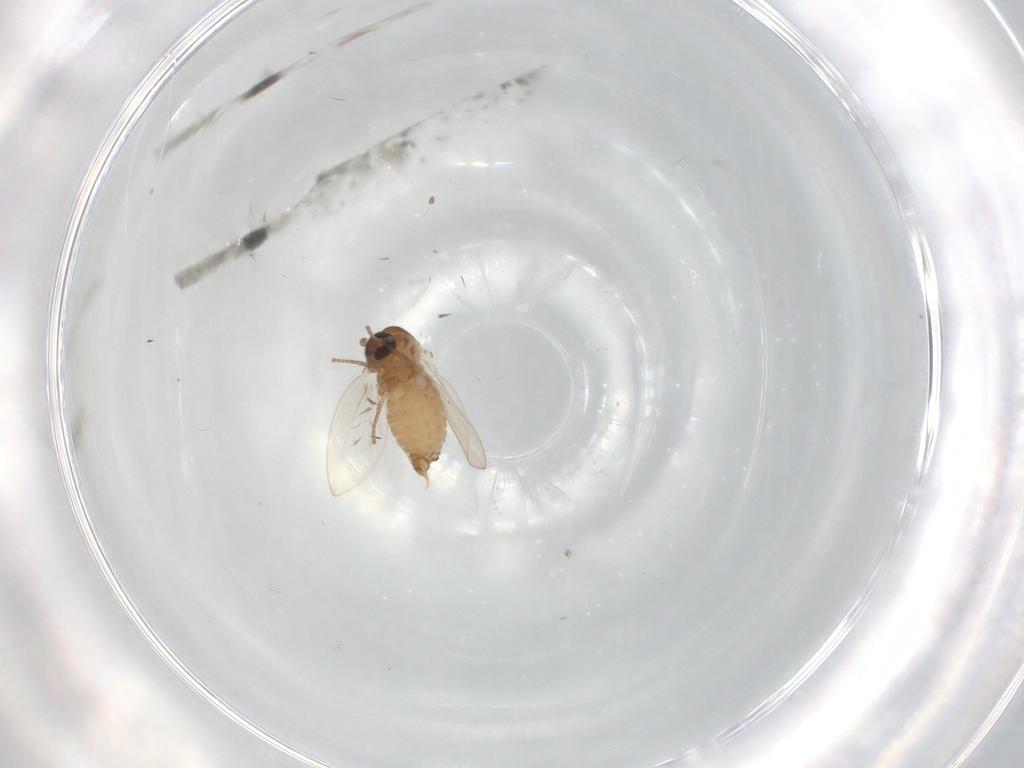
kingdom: Animalia
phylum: Arthropoda
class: Insecta
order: Diptera
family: Psychodidae
